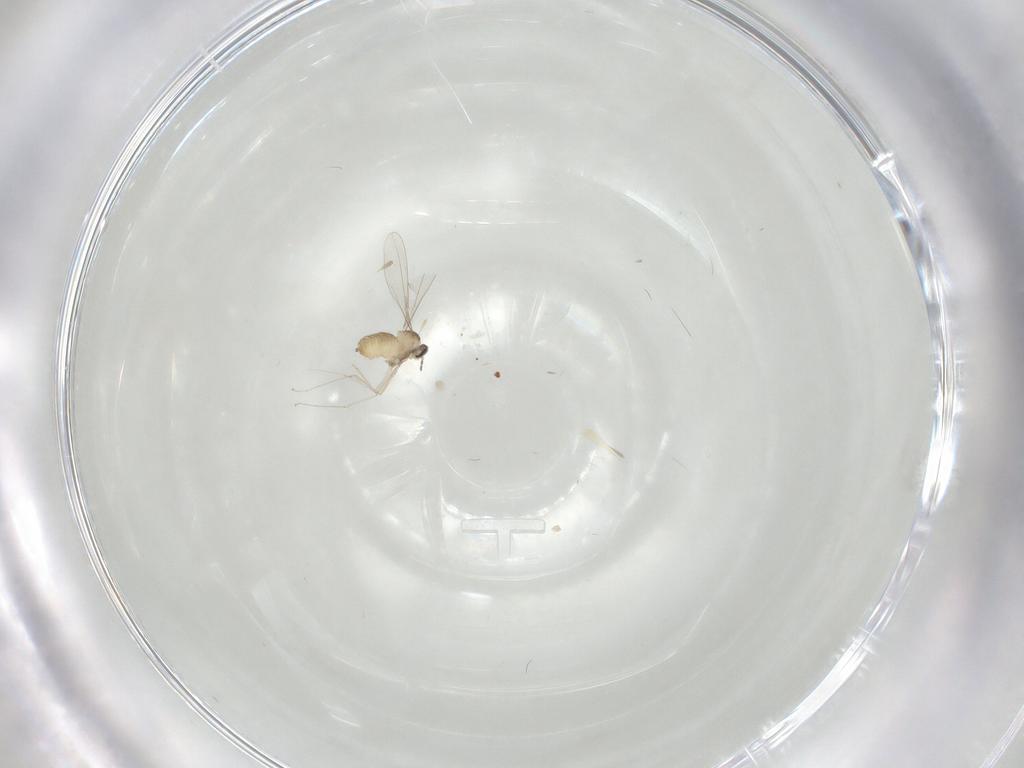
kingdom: Animalia
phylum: Arthropoda
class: Insecta
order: Diptera
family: Cecidomyiidae
